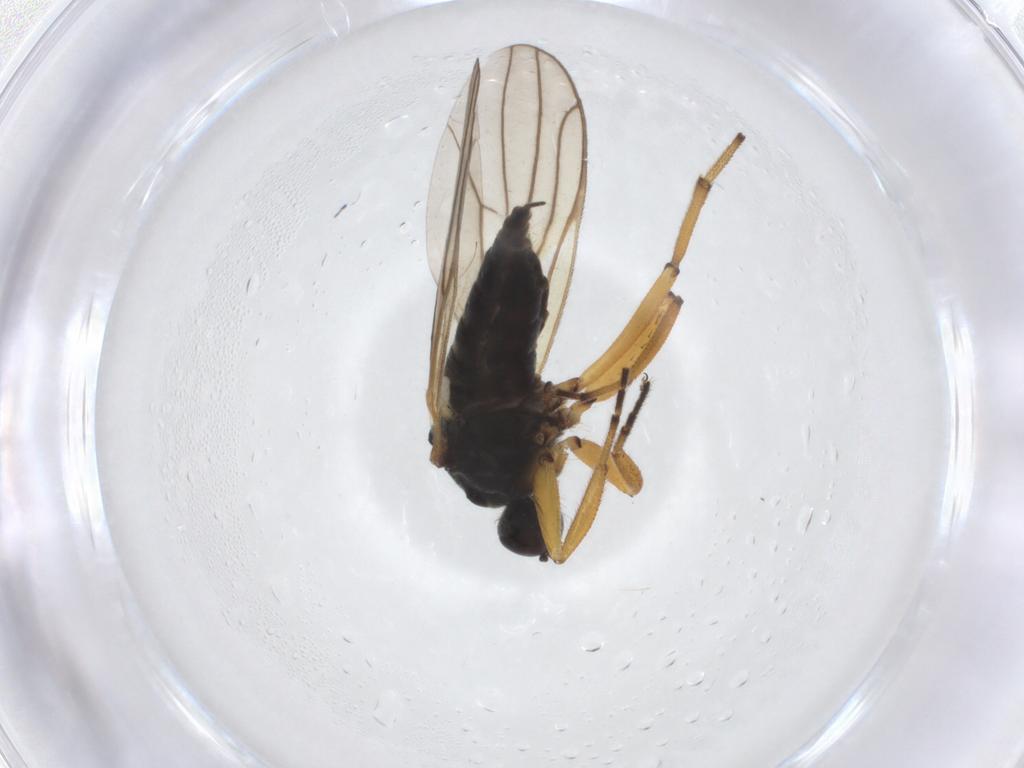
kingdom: Animalia
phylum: Arthropoda
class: Insecta
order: Diptera
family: Hybotidae
